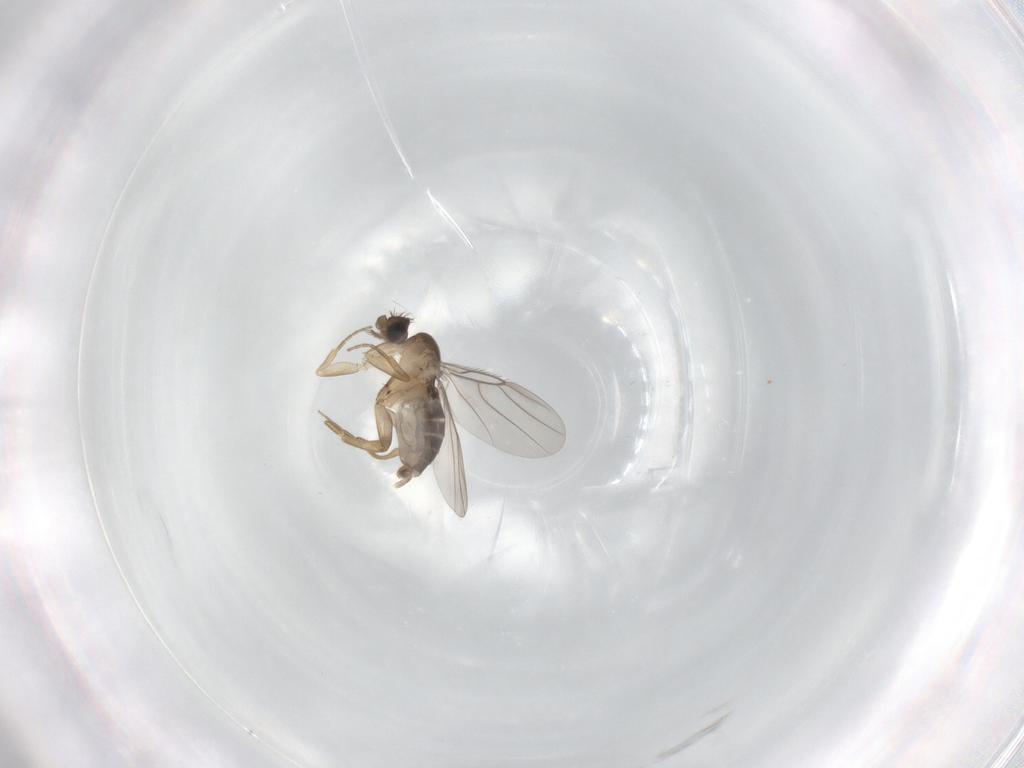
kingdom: Animalia
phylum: Arthropoda
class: Insecta
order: Diptera
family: Phoridae
